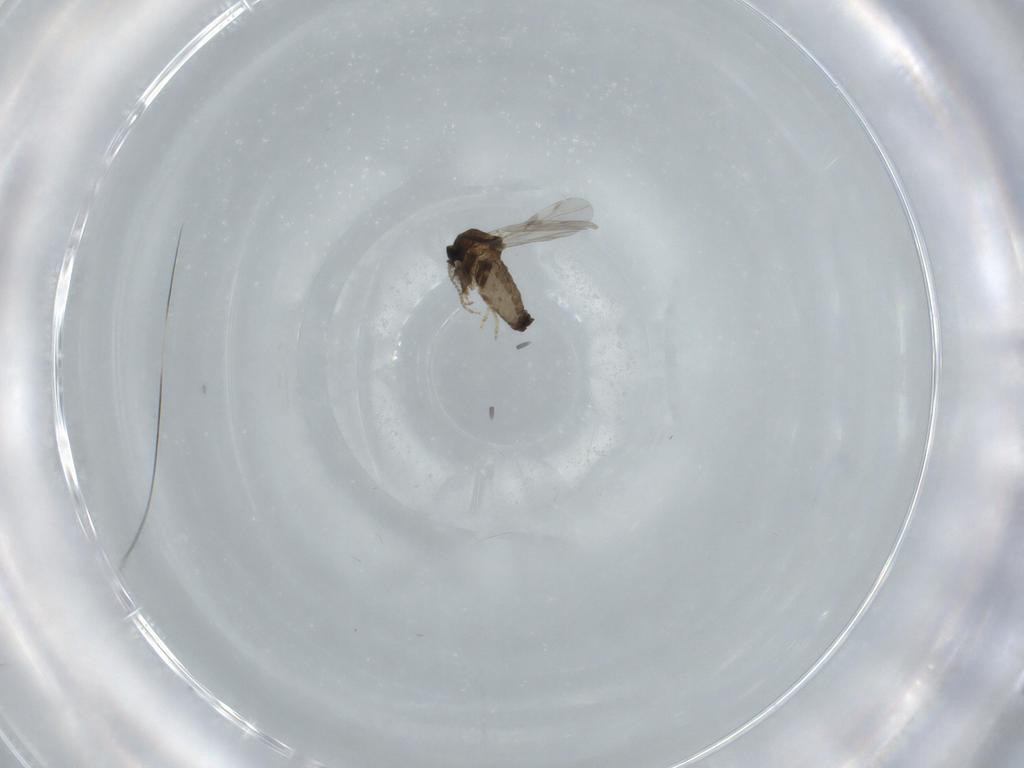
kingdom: Animalia
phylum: Arthropoda
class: Insecta
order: Diptera
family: Ceratopogonidae
